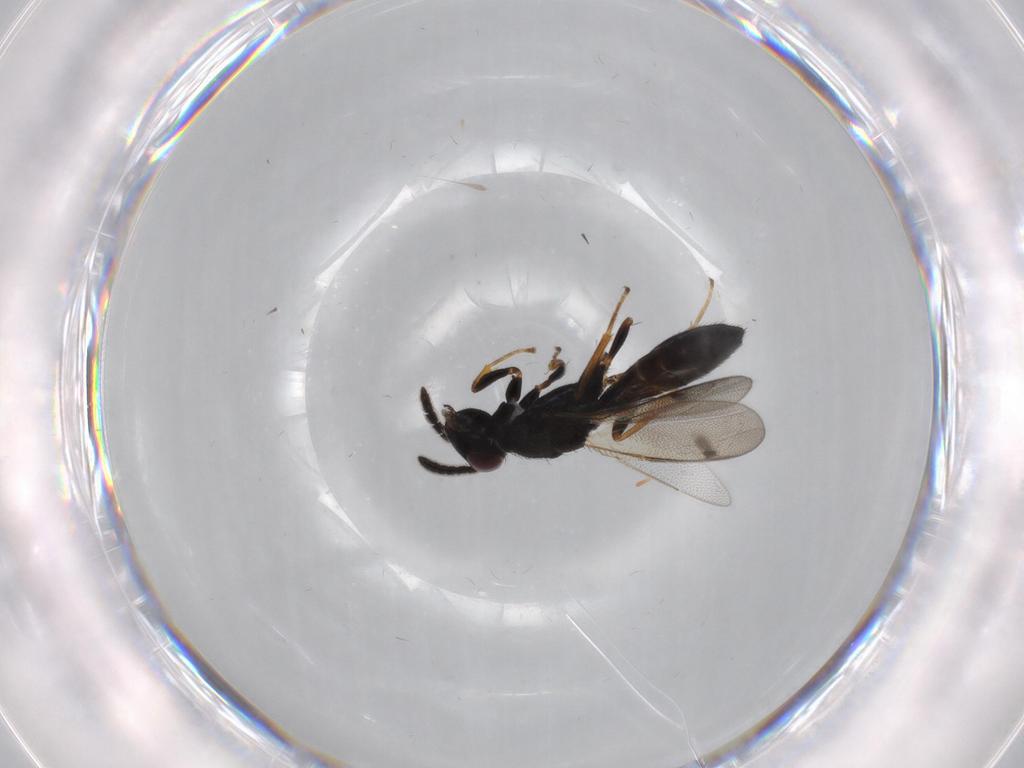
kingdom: Animalia
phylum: Arthropoda
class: Insecta
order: Hymenoptera
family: Pteromalidae
